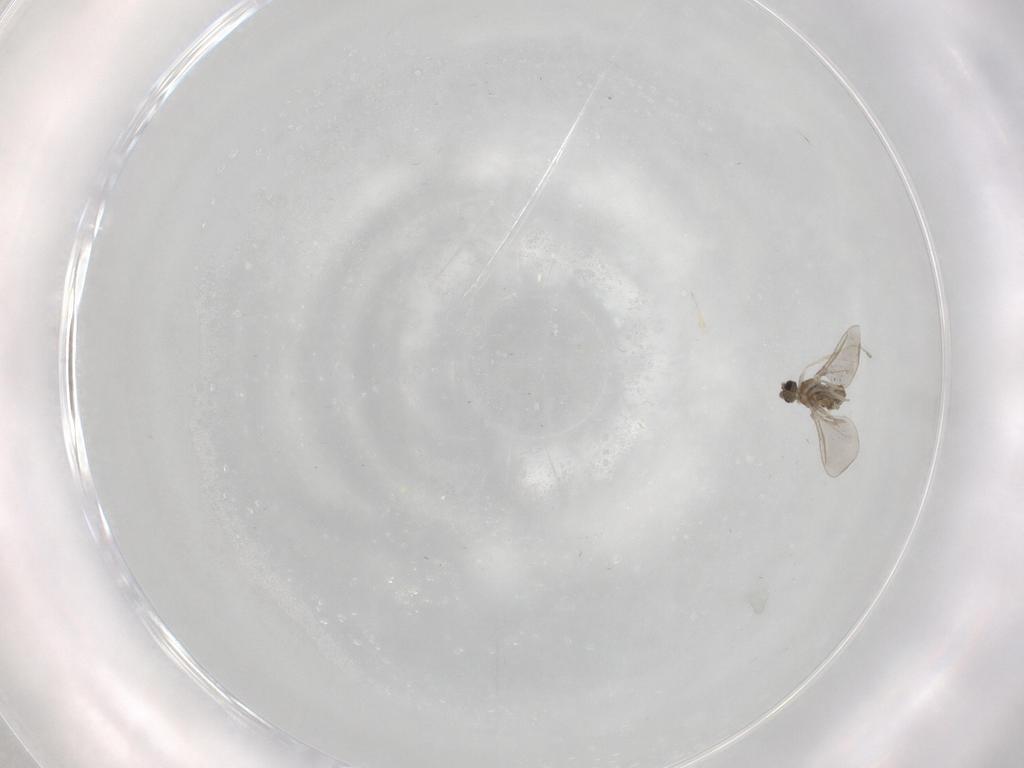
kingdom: Animalia
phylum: Arthropoda
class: Insecta
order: Diptera
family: Cecidomyiidae
